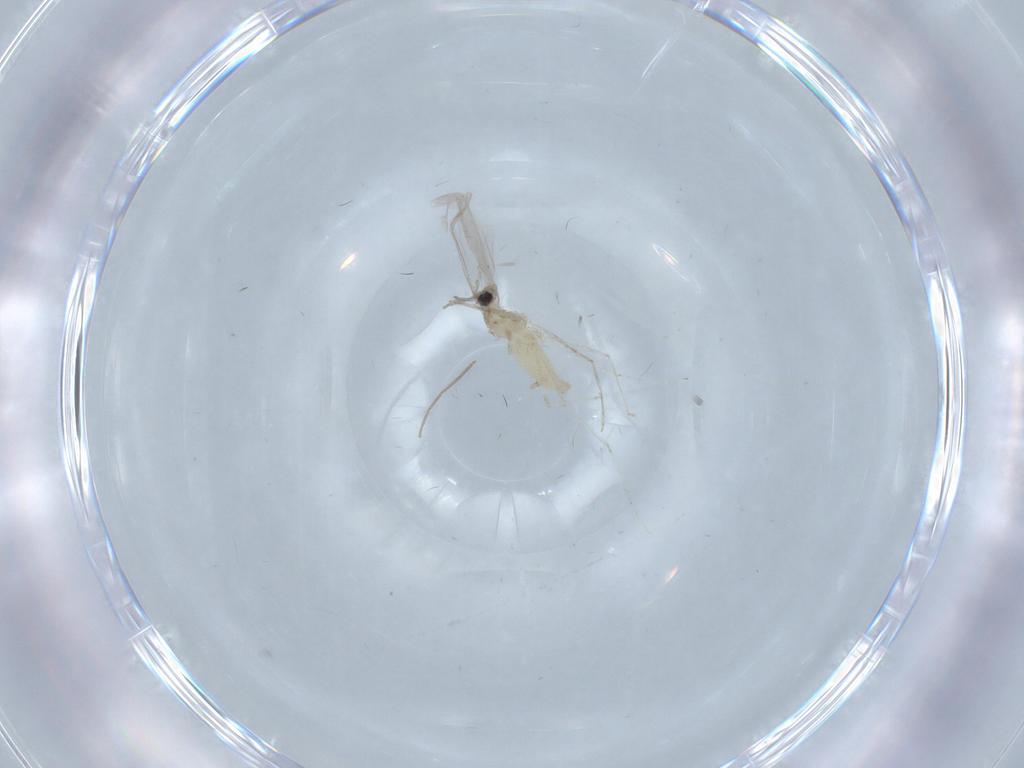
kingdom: Animalia
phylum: Arthropoda
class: Insecta
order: Diptera
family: Chironomidae
